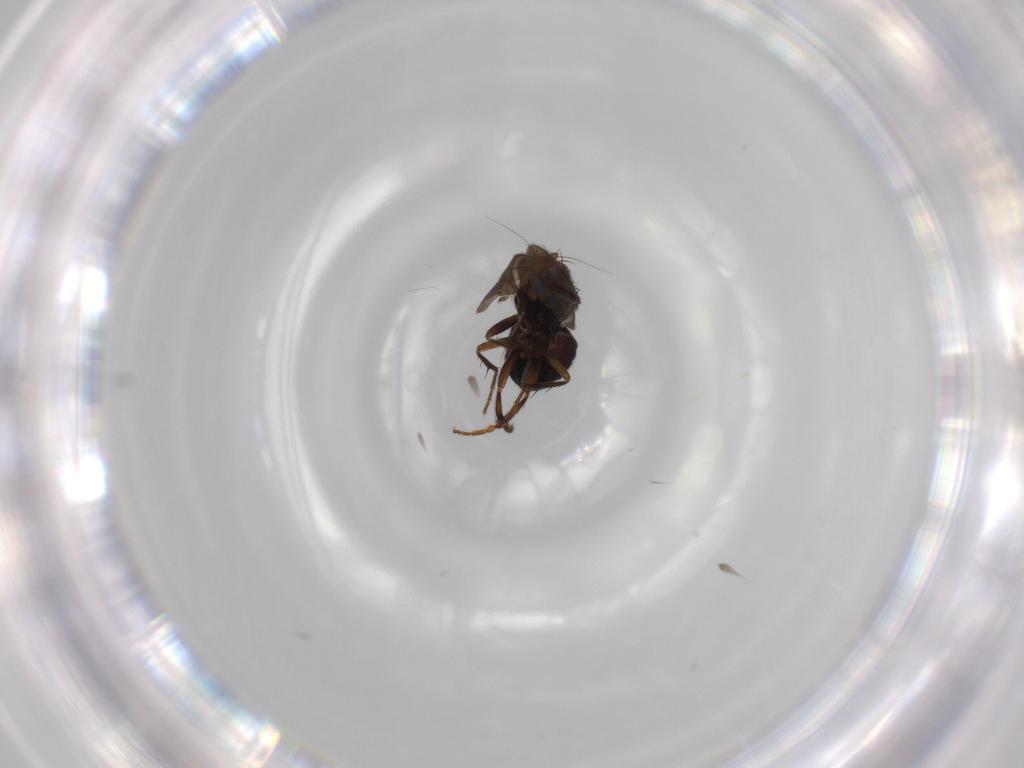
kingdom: Animalia
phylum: Arthropoda
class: Insecta
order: Diptera
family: Sphaeroceridae
